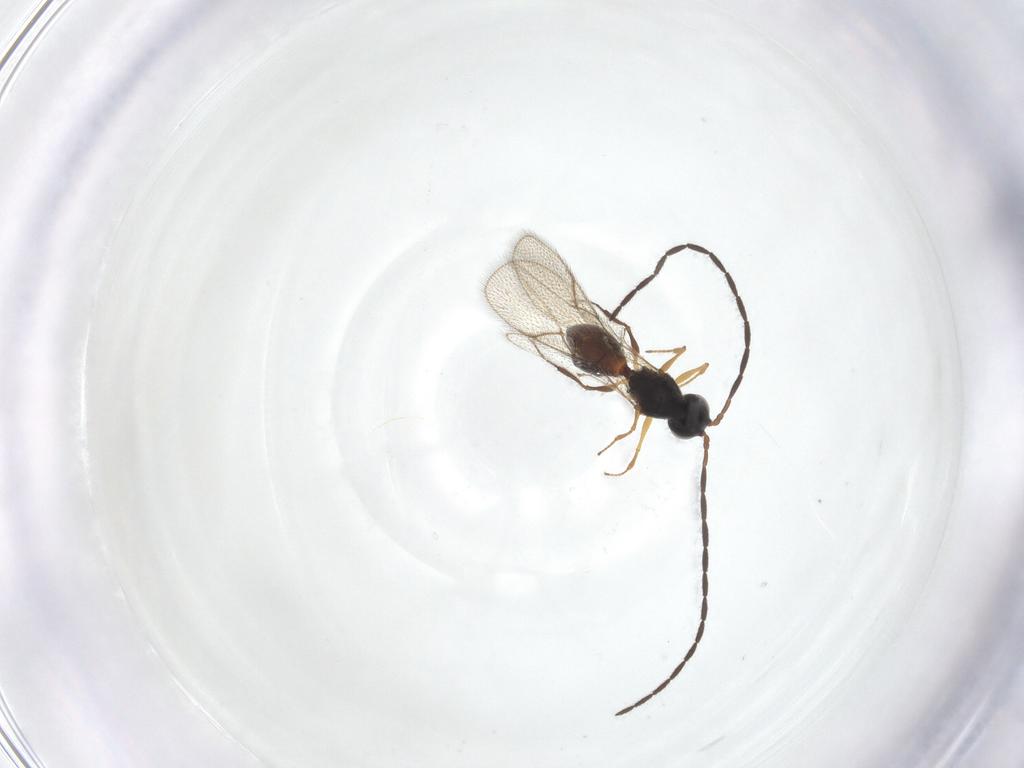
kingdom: Animalia
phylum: Arthropoda
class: Insecta
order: Hymenoptera
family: Figitidae
